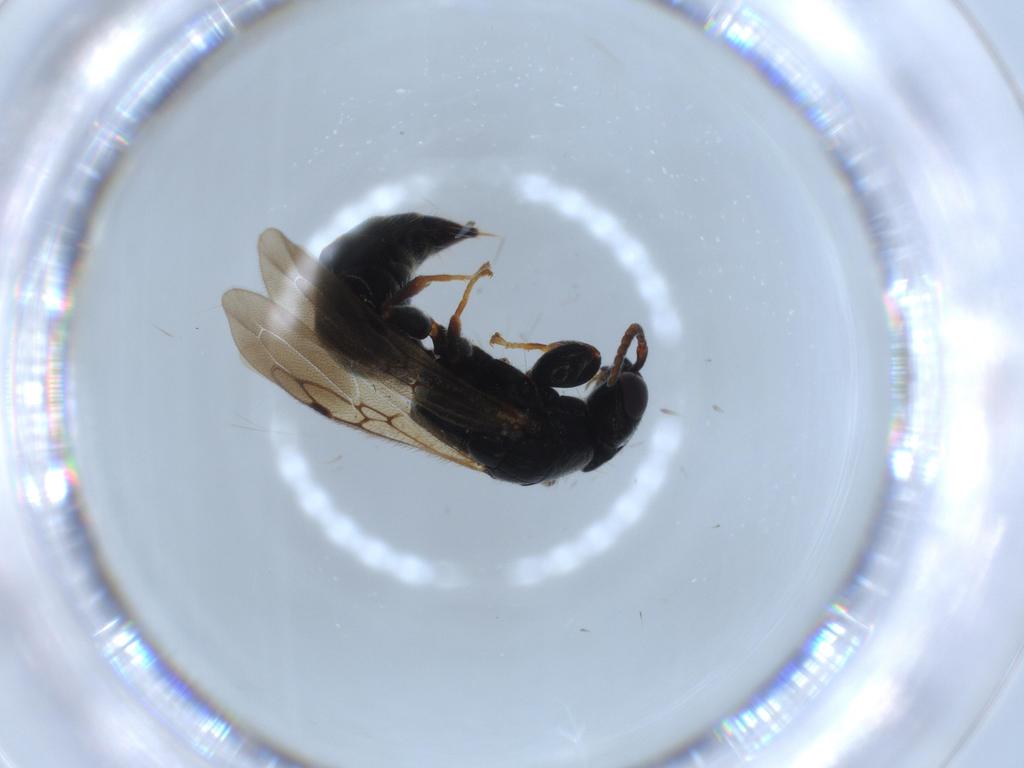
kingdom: Animalia
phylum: Arthropoda
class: Insecta
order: Hymenoptera
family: Bethylidae
